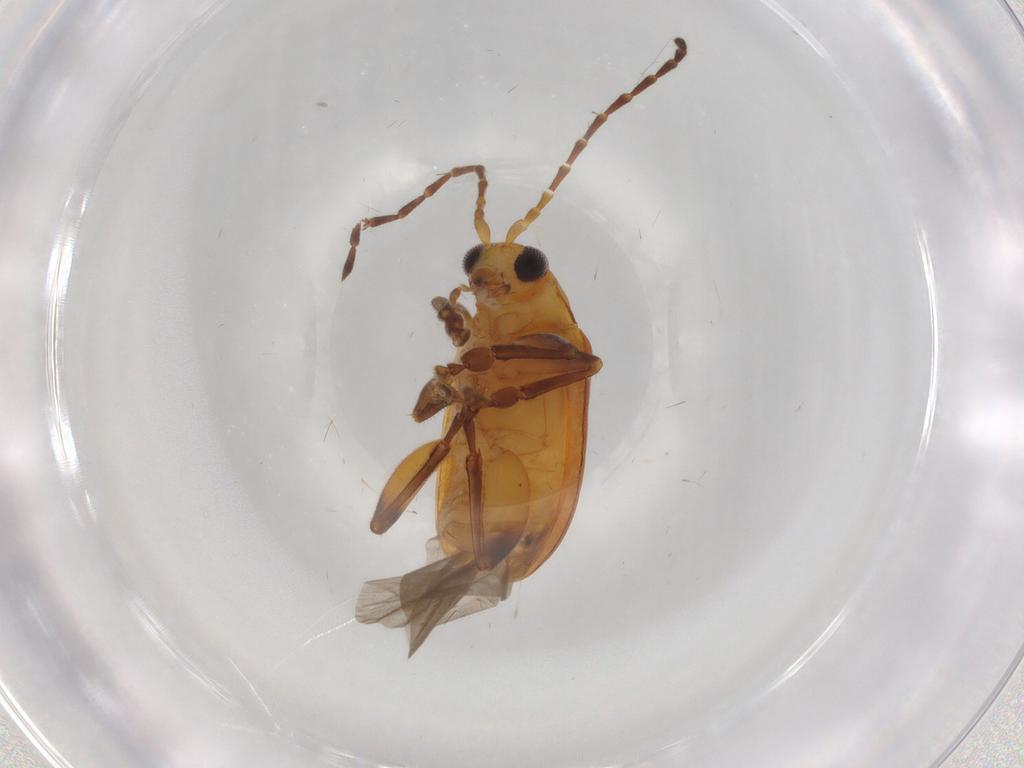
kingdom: Animalia
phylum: Arthropoda
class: Insecta
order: Coleoptera
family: Chrysomelidae
